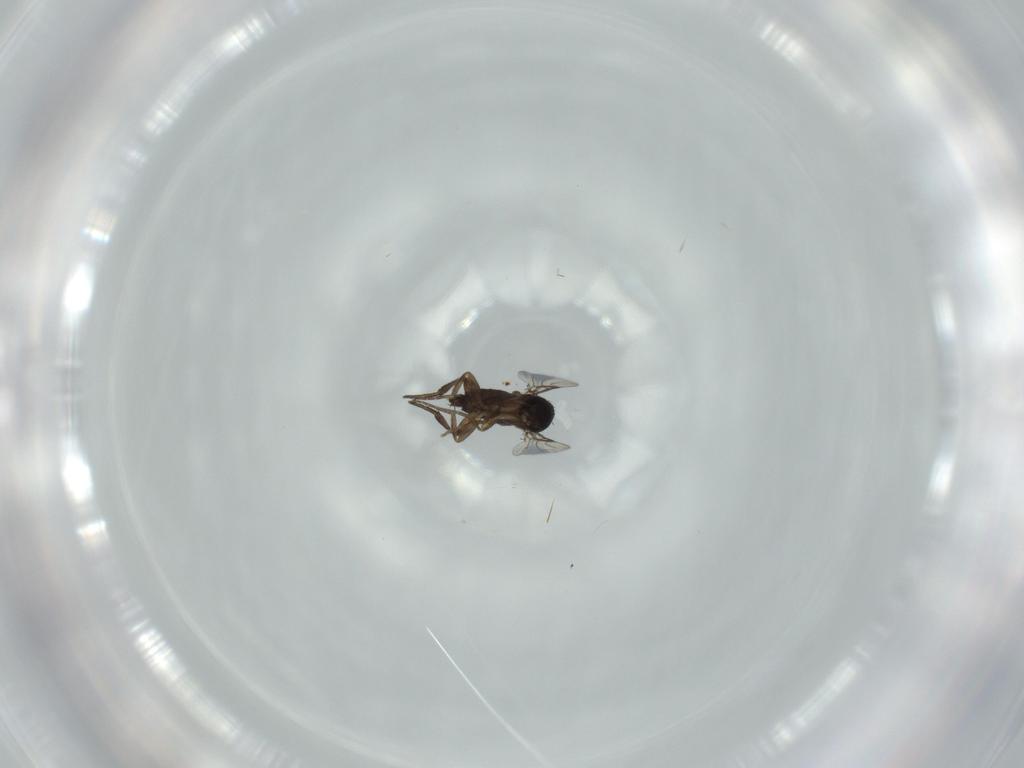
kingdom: Animalia
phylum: Arthropoda
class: Insecta
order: Diptera
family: Phoridae
